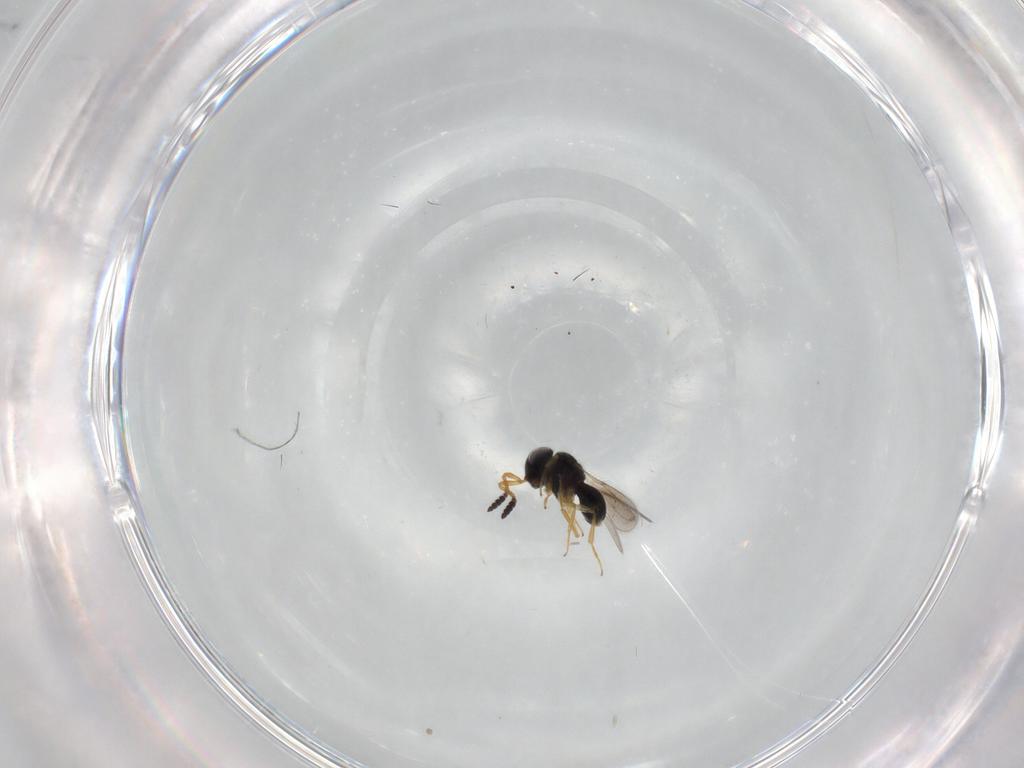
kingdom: Animalia
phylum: Arthropoda
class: Insecta
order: Hymenoptera
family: Scelionidae
